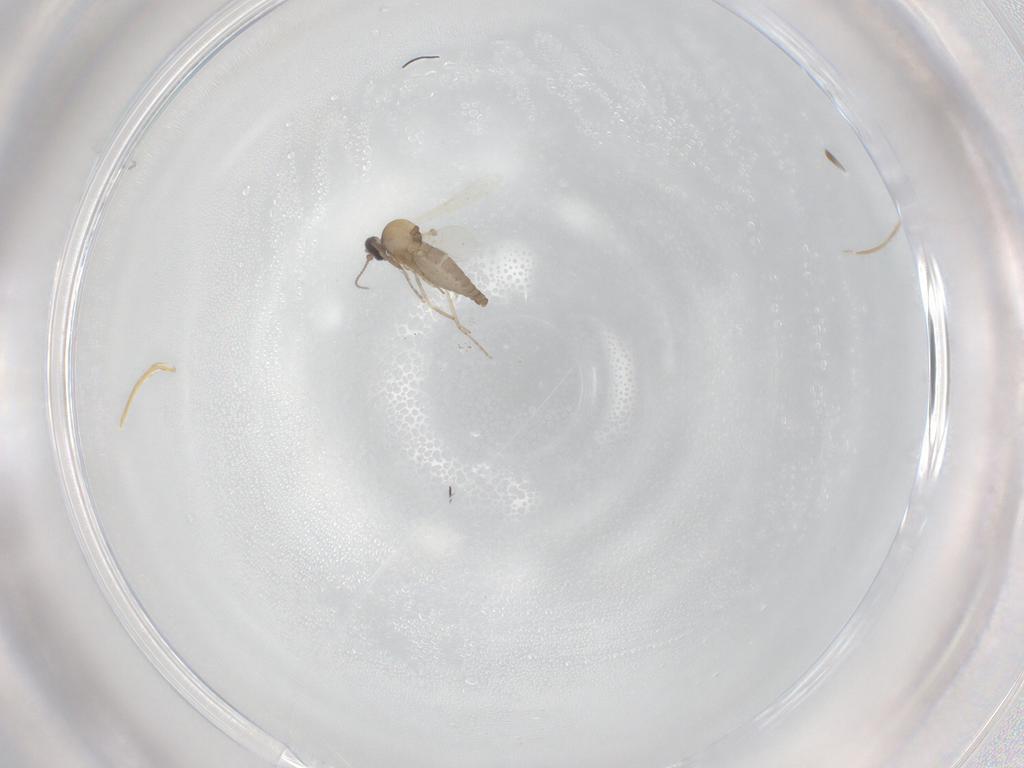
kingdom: Animalia
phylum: Arthropoda
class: Insecta
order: Diptera
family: Ceratopogonidae
